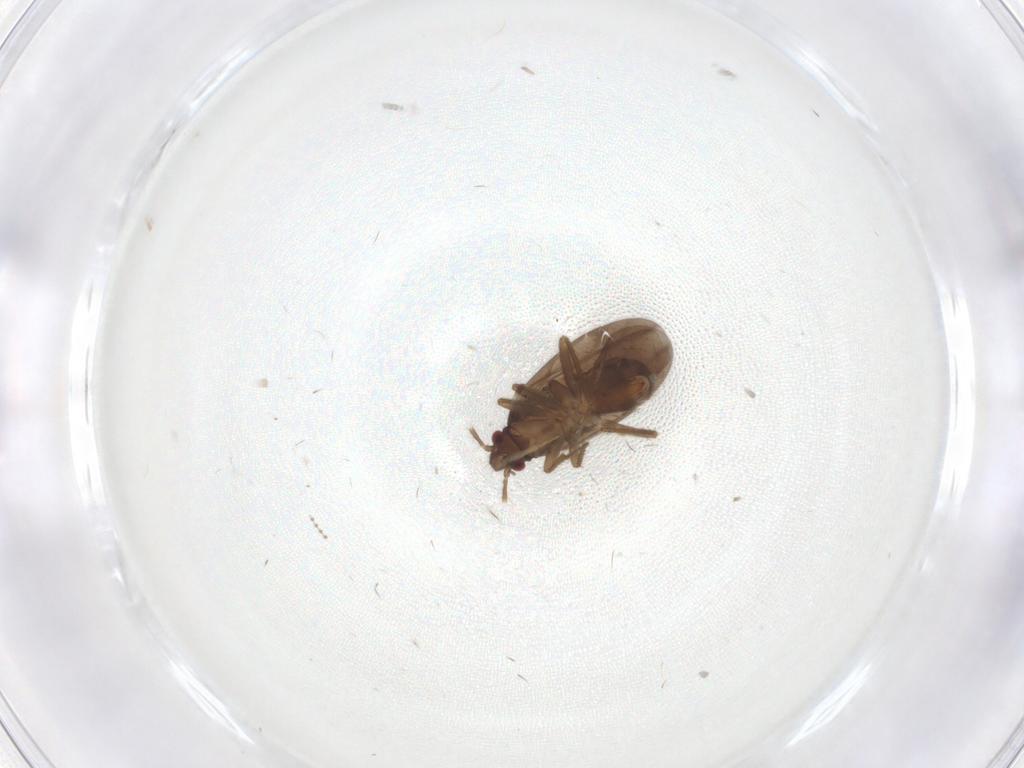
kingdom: Animalia
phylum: Arthropoda
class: Insecta
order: Hemiptera
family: Ceratocombidae
